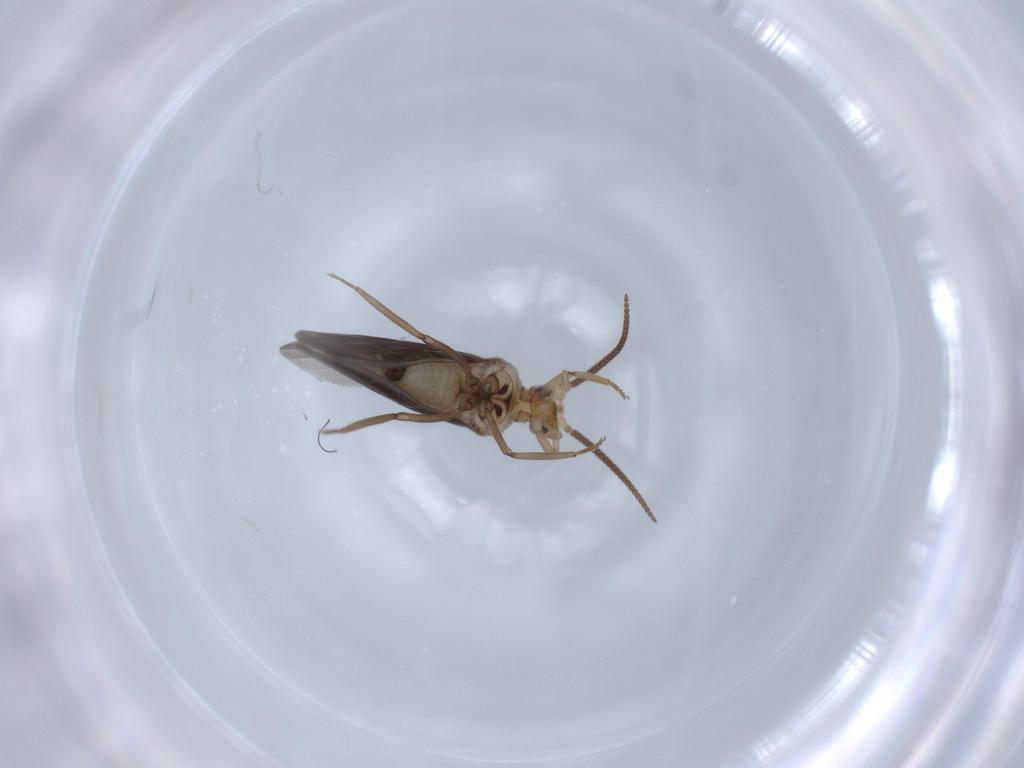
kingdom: Animalia
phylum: Arthropoda
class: Insecta
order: Neuroptera
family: Coniopterygidae
